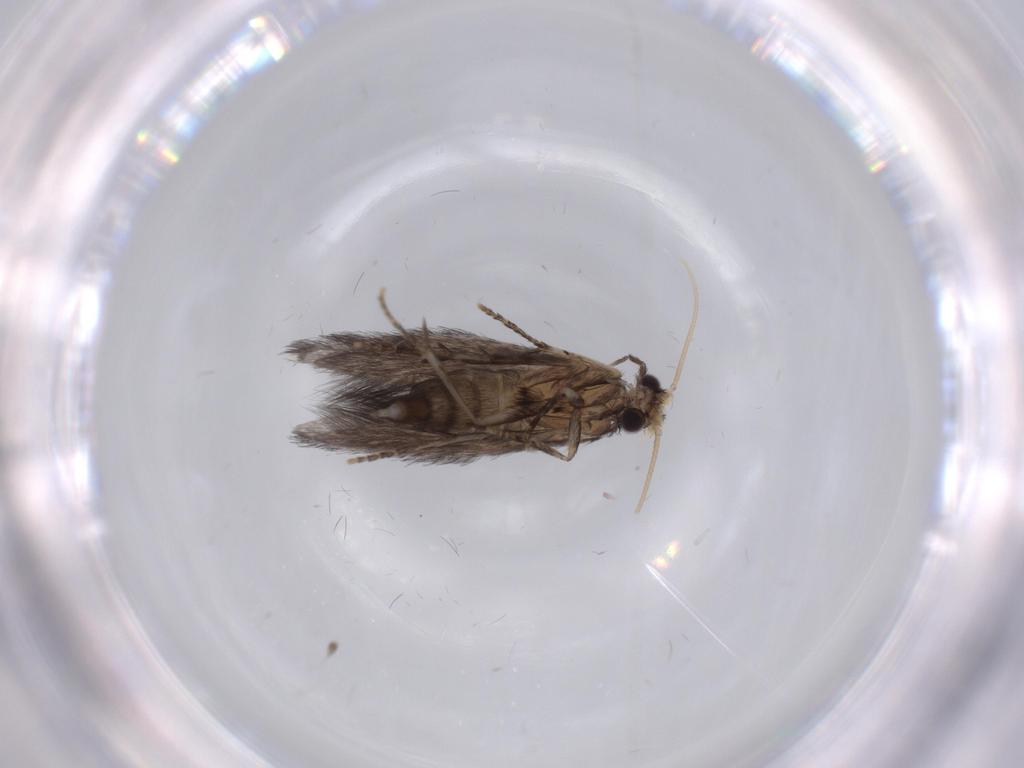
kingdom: Animalia
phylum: Arthropoda
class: Insecta
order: Trichoptera
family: Hydroptilidae
